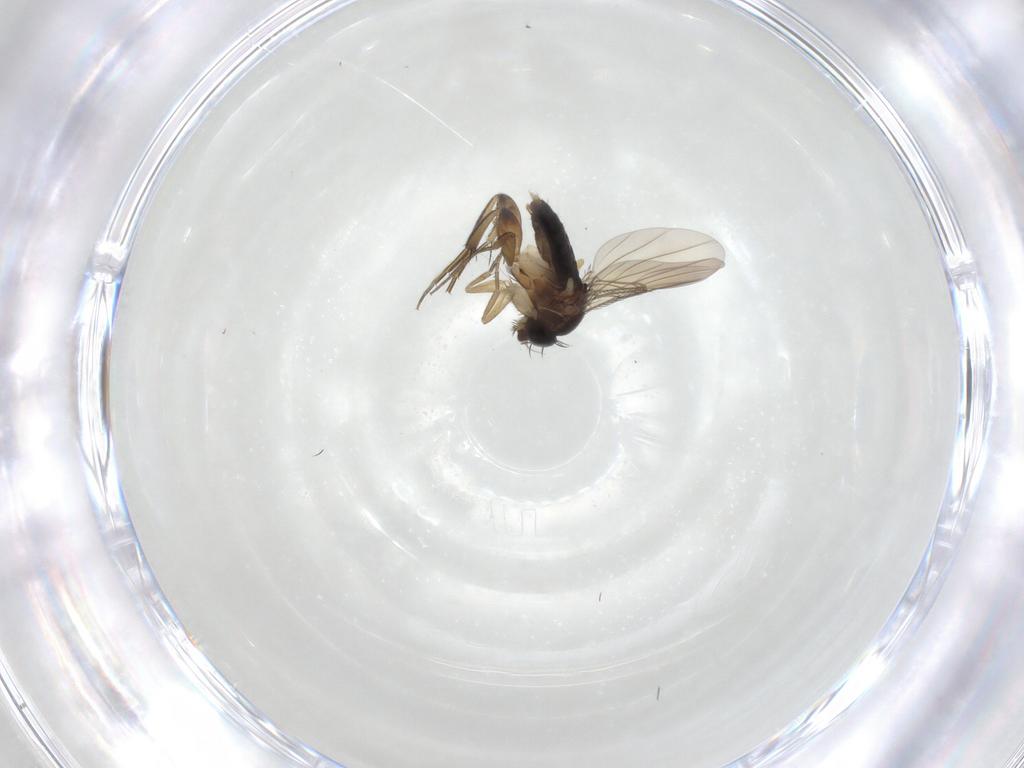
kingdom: Animalia
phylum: Arthropoda
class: Insecta
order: Diptera
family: Phoridae
